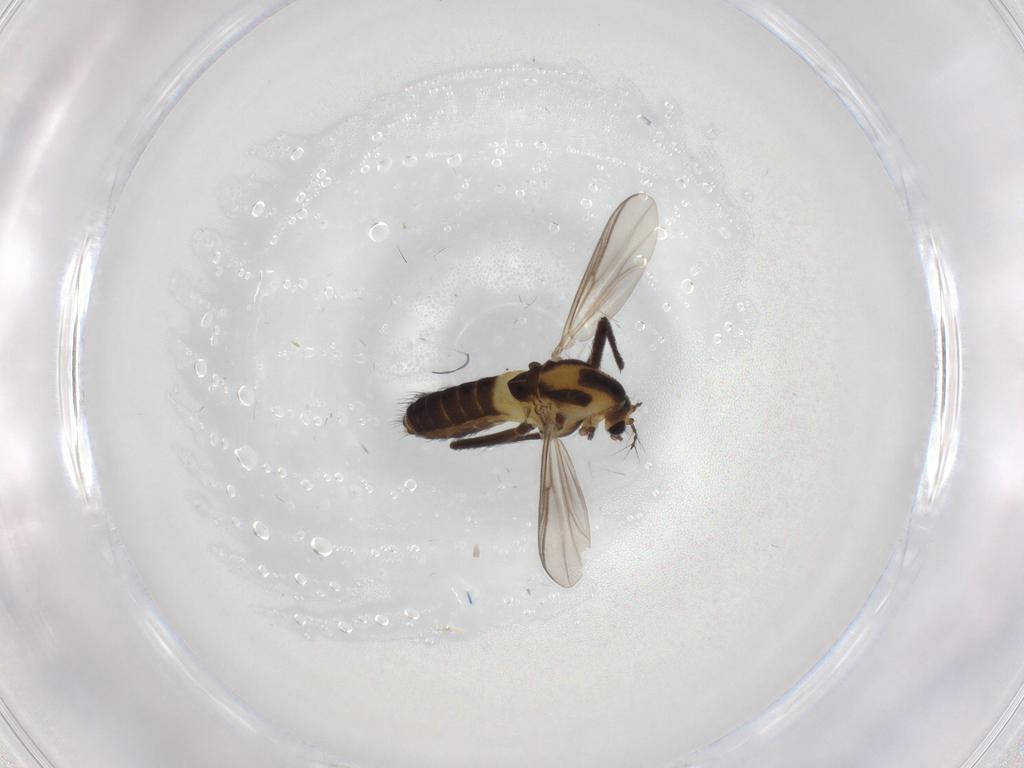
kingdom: Animalia
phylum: Arthropoda
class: Insecta
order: Diptera
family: Chironomidae
